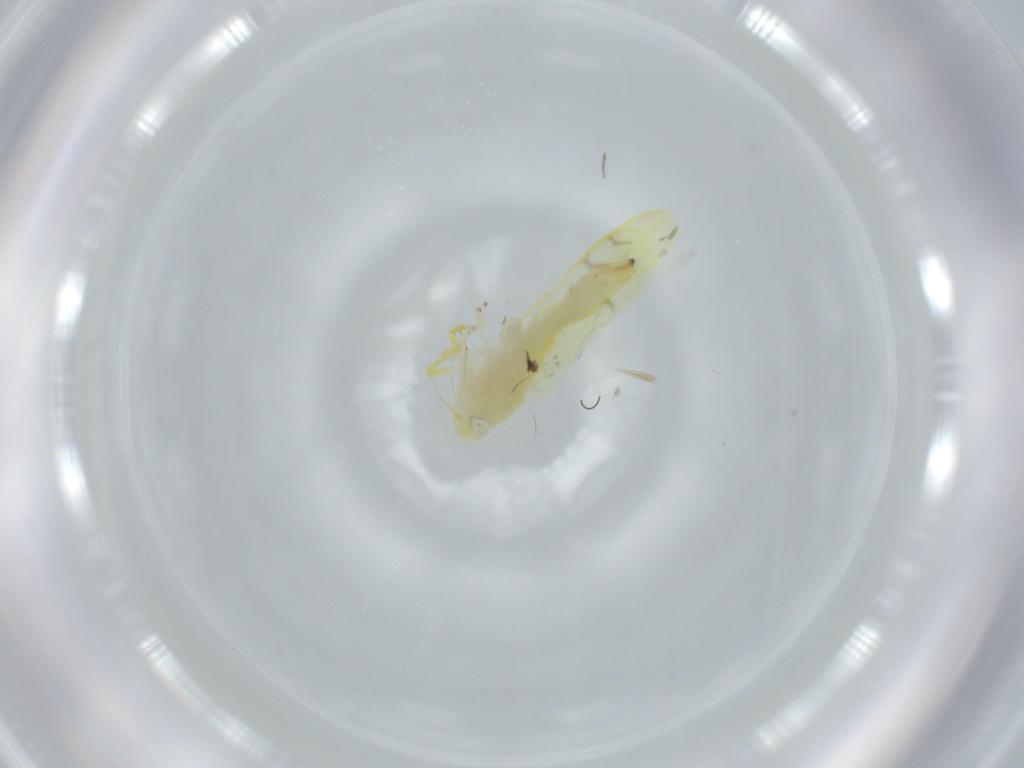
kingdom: Animalia
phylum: Arthropoda
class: Insecta
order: Hemiptera
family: Cicadellidae
